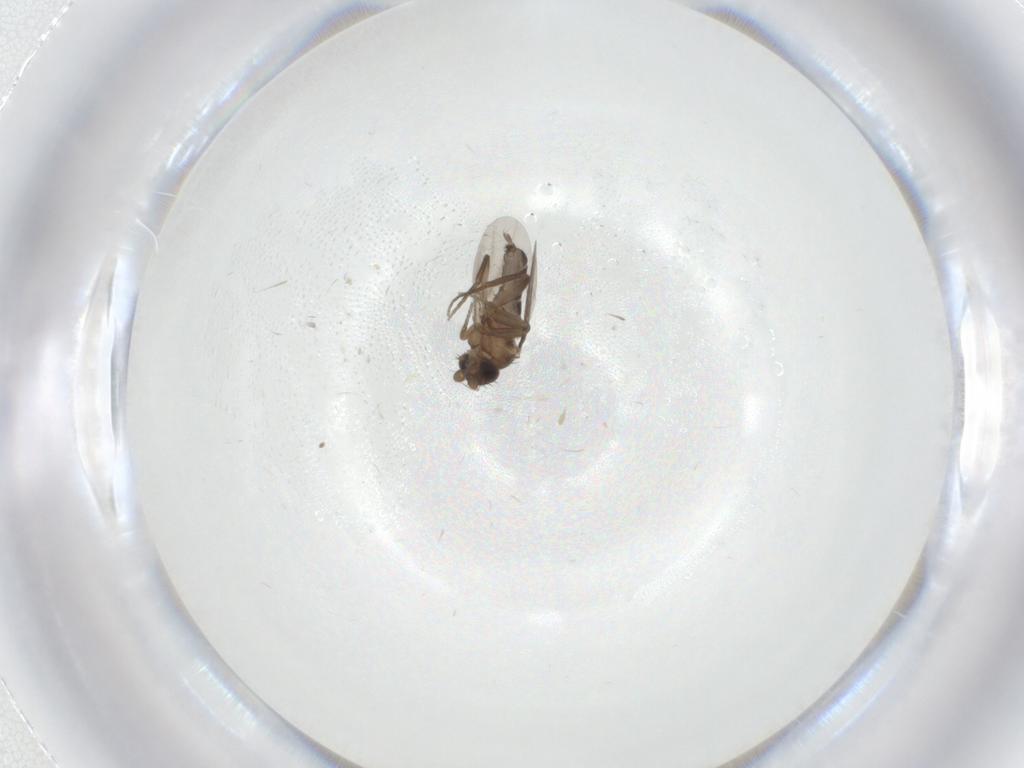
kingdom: Animalia
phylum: Arthropoda
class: Insecta
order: Diptera
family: Phoridae
